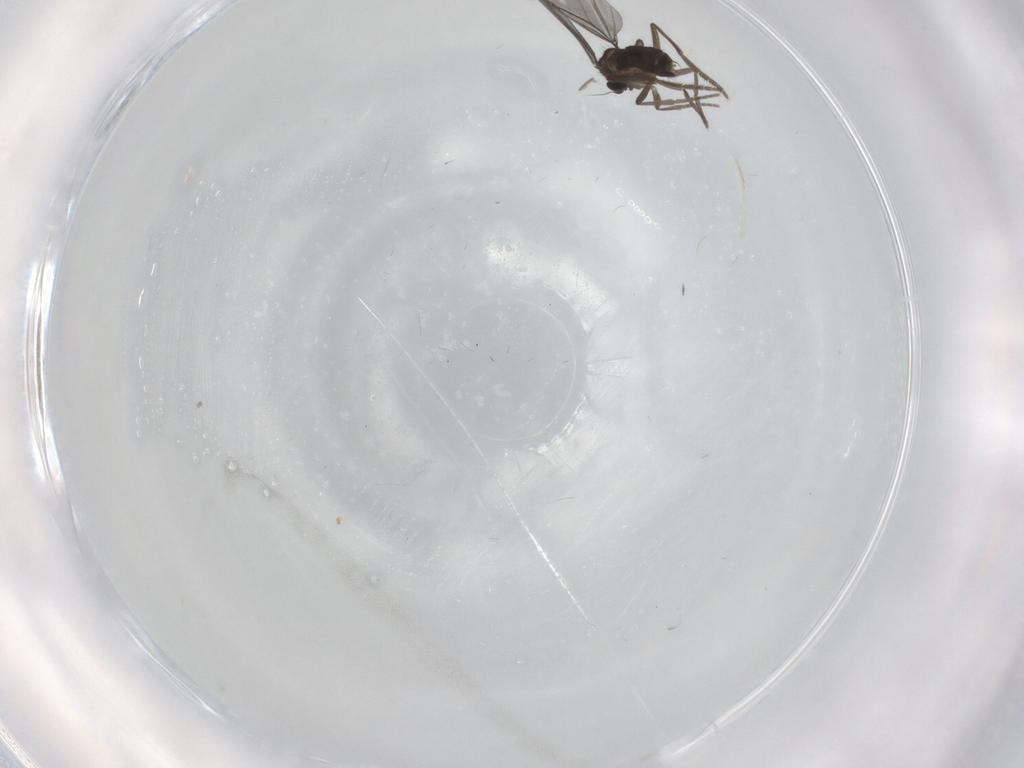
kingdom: Animalia
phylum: Arthropoda
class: Insecta
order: Diptera
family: Phoridae
